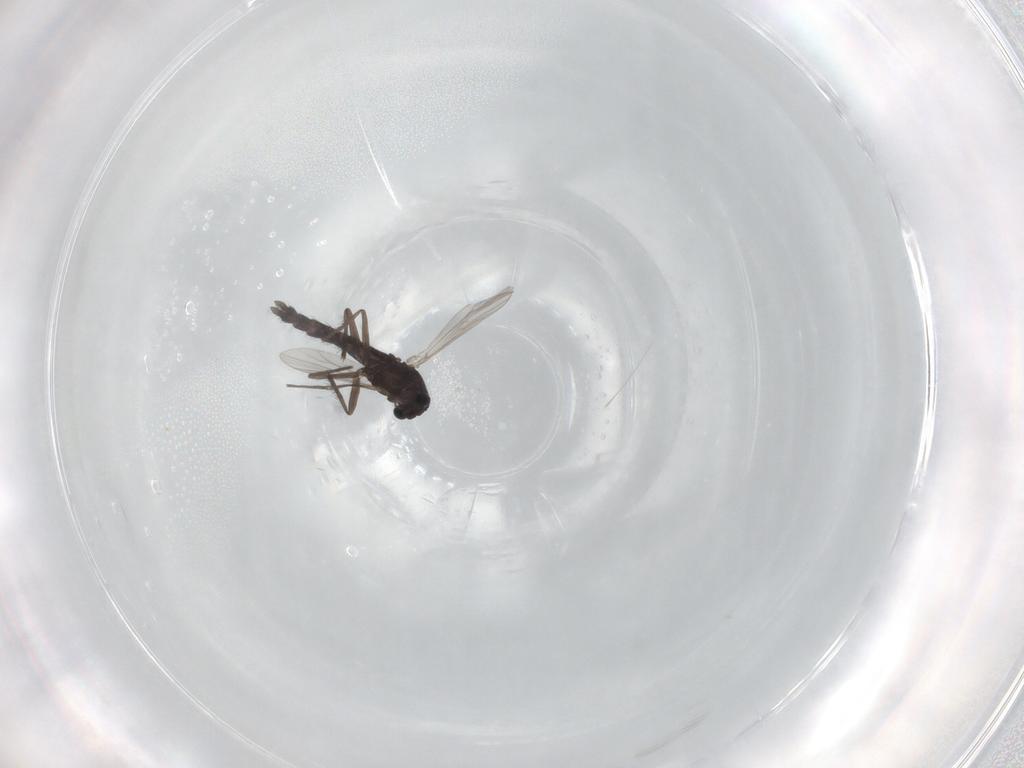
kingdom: Animalia
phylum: Arthropoda
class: Insecta
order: Diptera
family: Chironomidae
